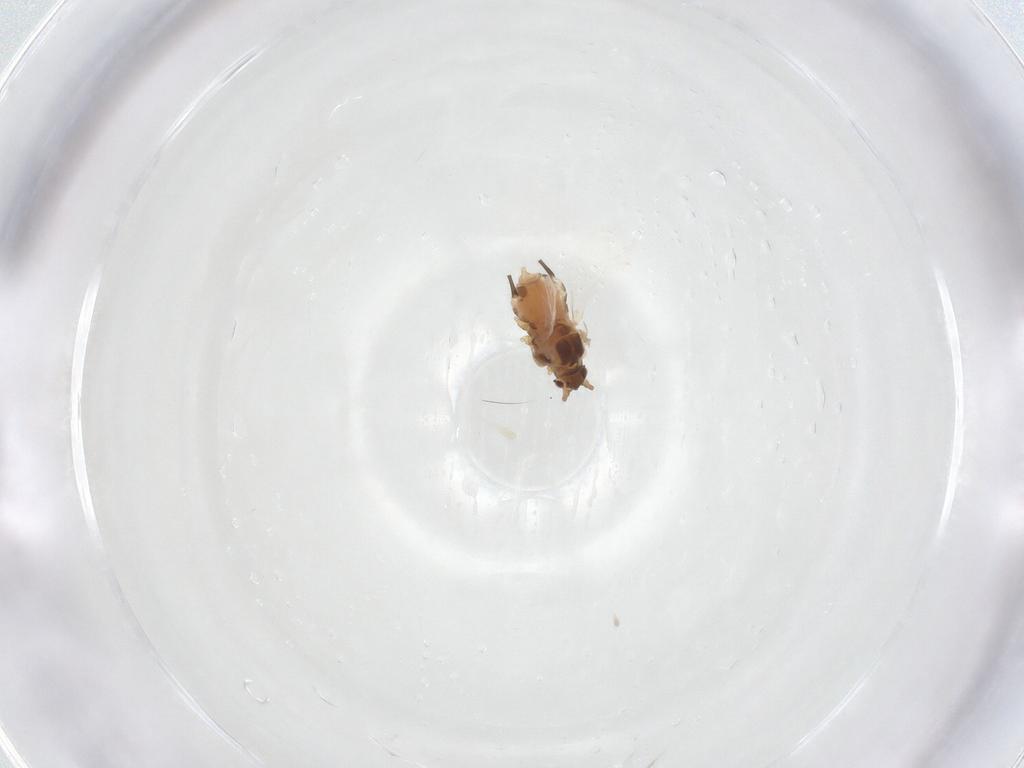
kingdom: Animalia
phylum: Arthropoda
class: Insecta
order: Hemiptera
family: Aphididae
